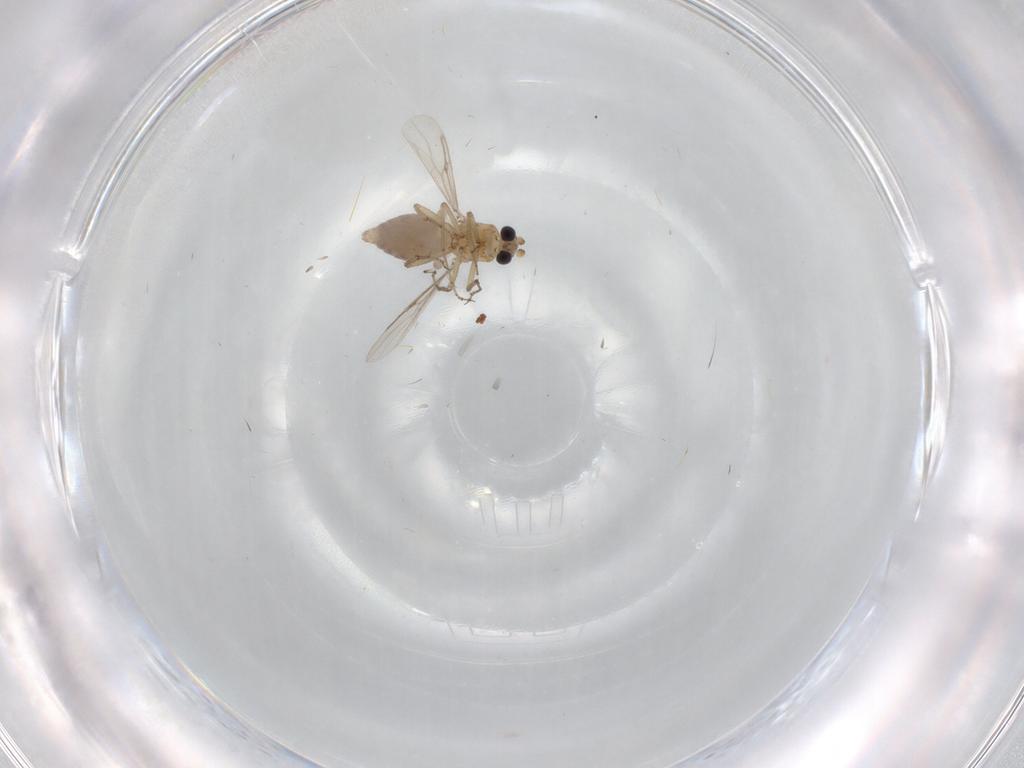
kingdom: Animalia
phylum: Arthropoda
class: Insecta
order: Diptera
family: Ceratopogonidae
